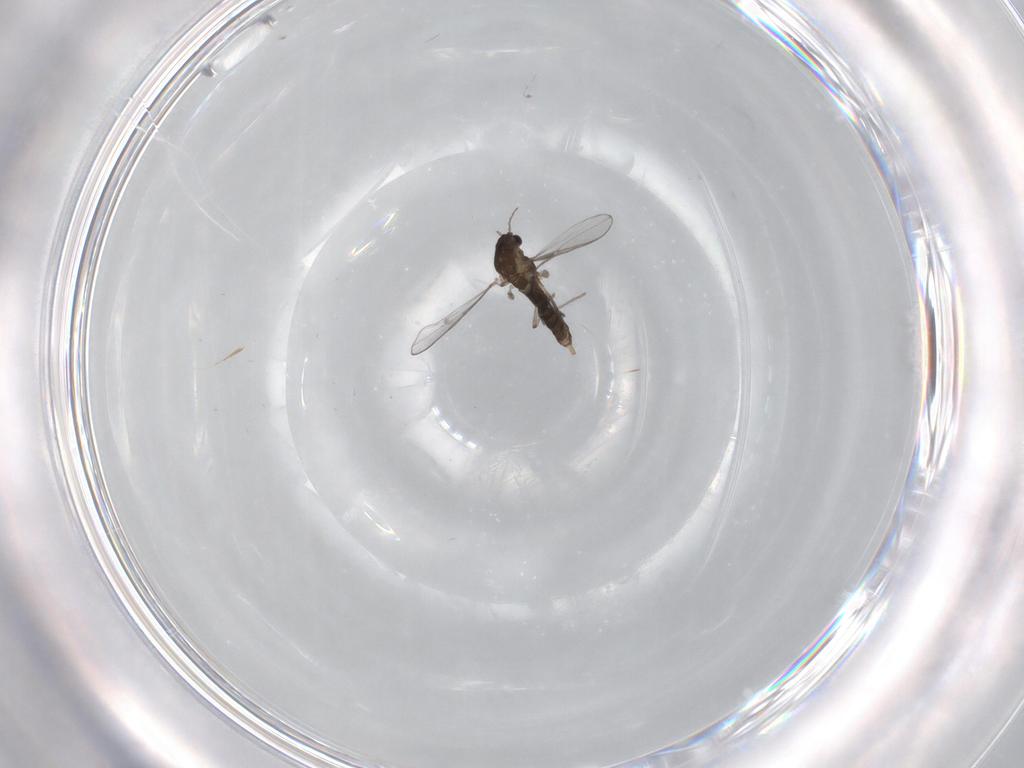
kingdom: Animalia
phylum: Arthropoda
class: Insecta
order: Diptera
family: Chironomidae
